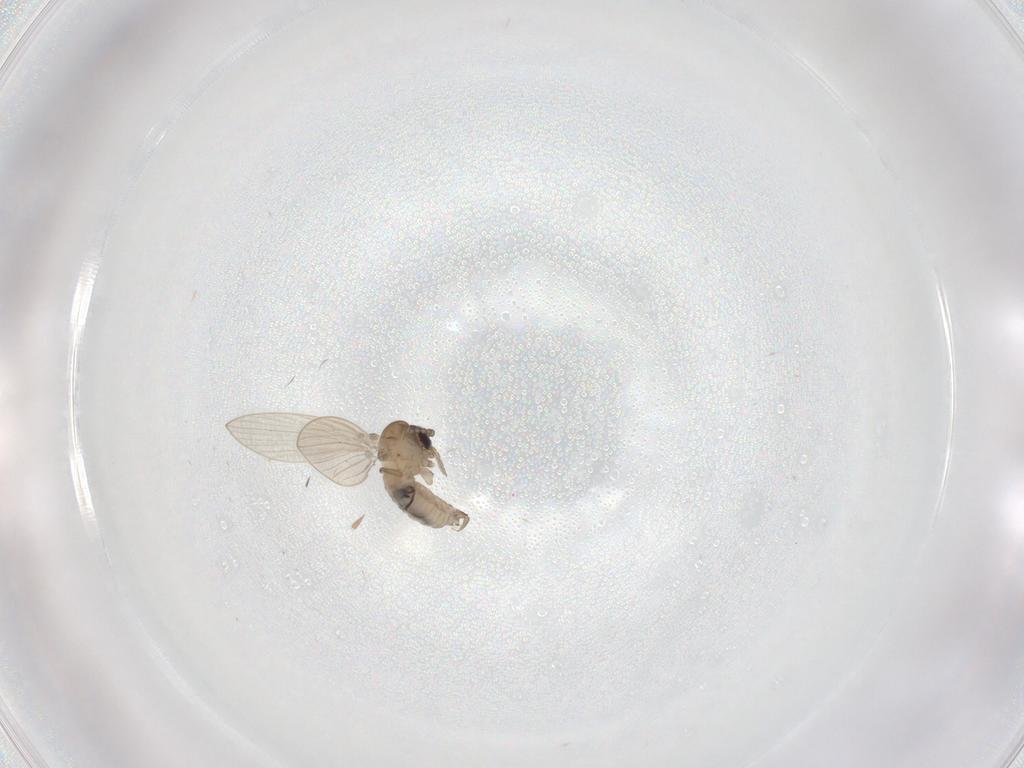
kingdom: Animalia
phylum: Arthropoda
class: Insecta
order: Diptera
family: Psychodidae
